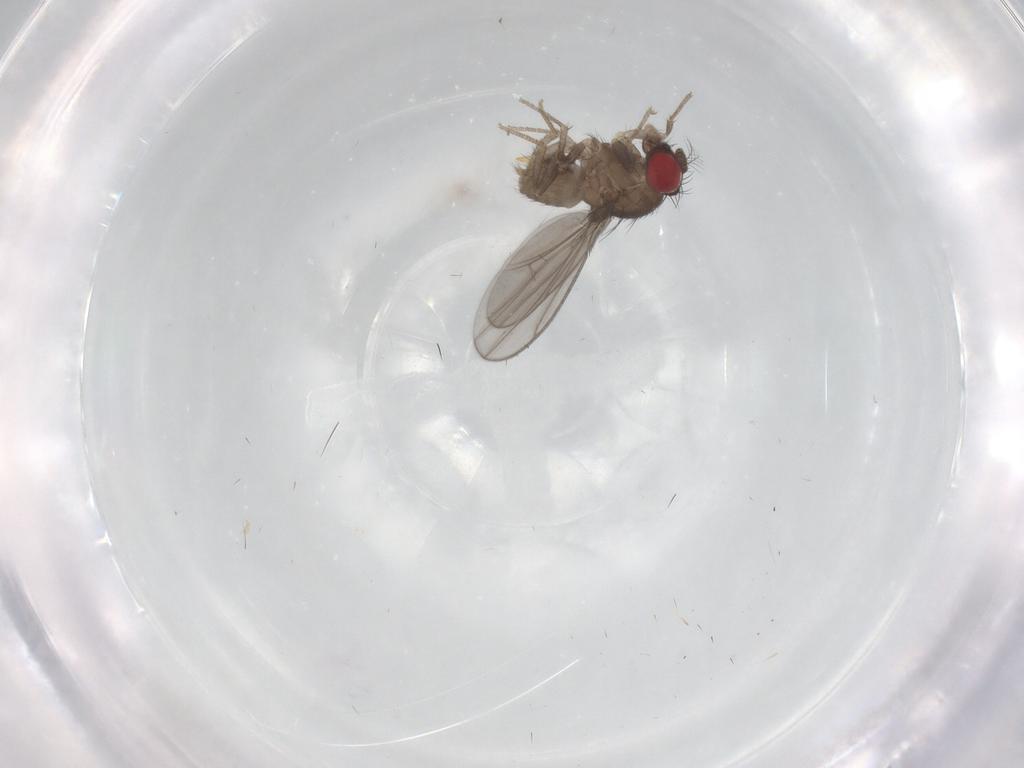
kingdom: Animalia
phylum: Arthropoda
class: Insecta
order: Diptera
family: Drosophilidae
